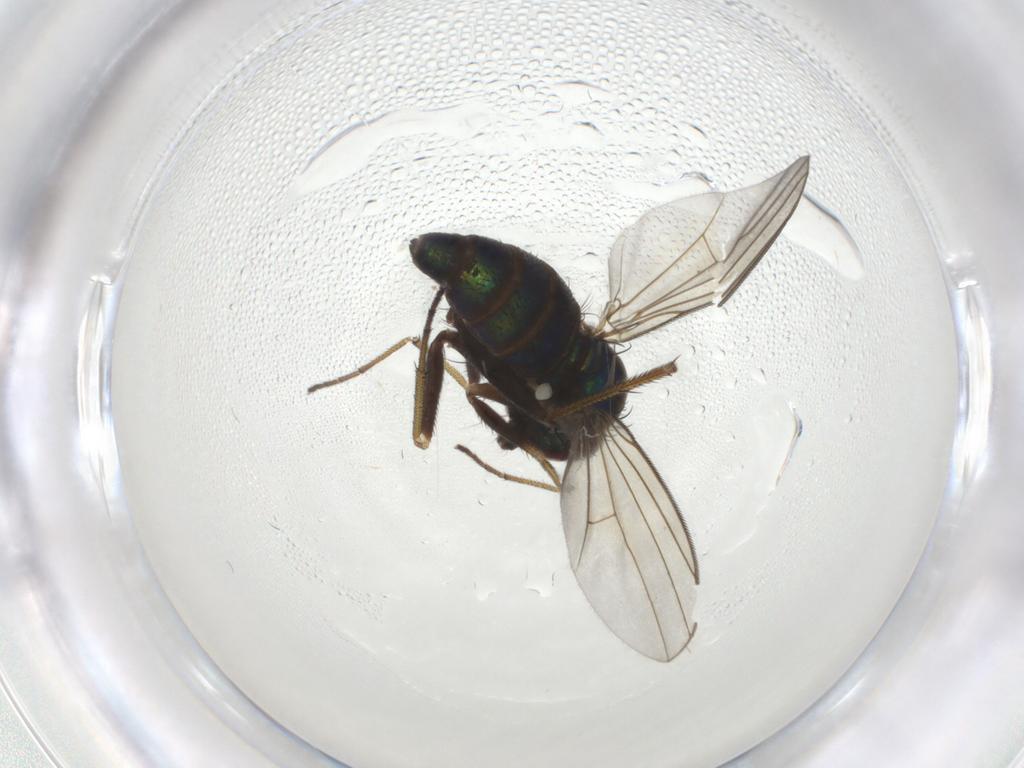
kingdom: Animalia
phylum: Arthropoda
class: Insecta
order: Diptera
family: Dolichopodidae
